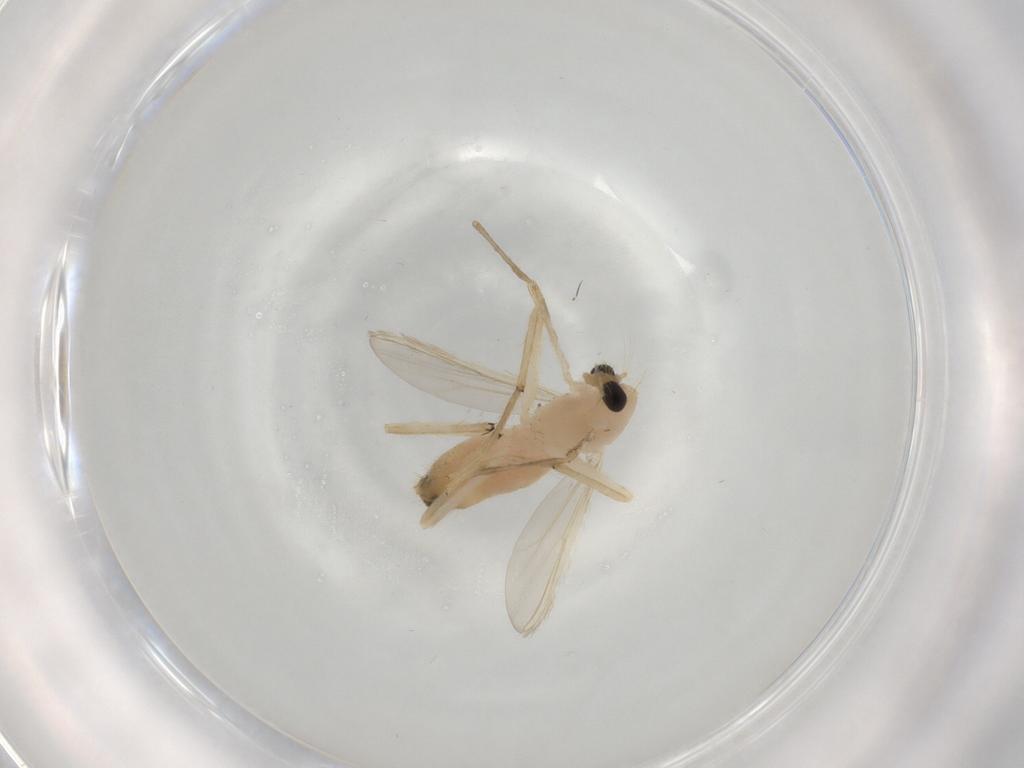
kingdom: Animalia
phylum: Arthropoda
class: Insecta
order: Diptera
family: Chironomidae
